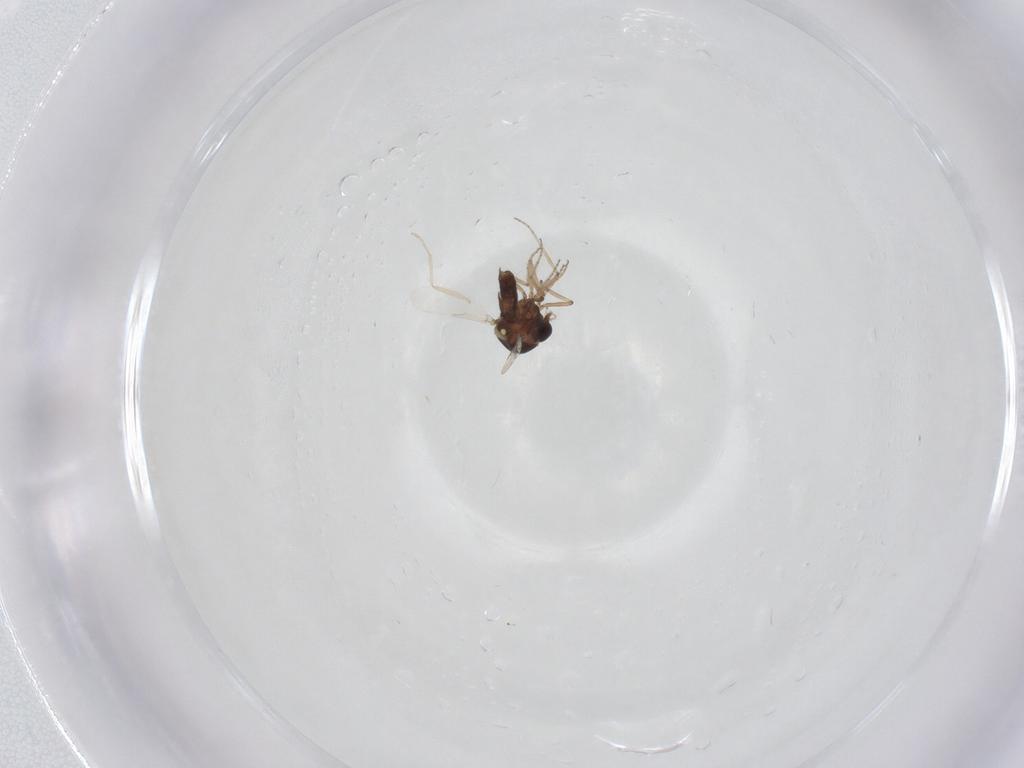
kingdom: Animalia
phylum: Arthropoda
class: Insecta
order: Diptera
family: Ceratopogonidae
